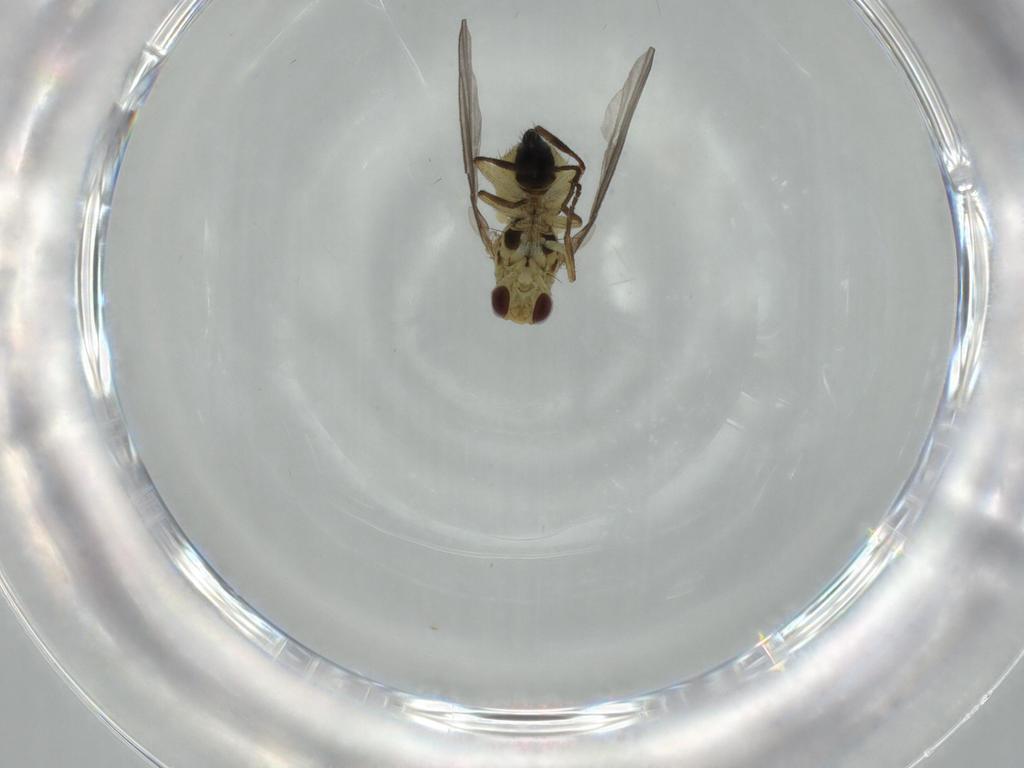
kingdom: Animalia
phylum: Arthropoda
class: Insecta
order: Diptera
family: Agromyzidae
